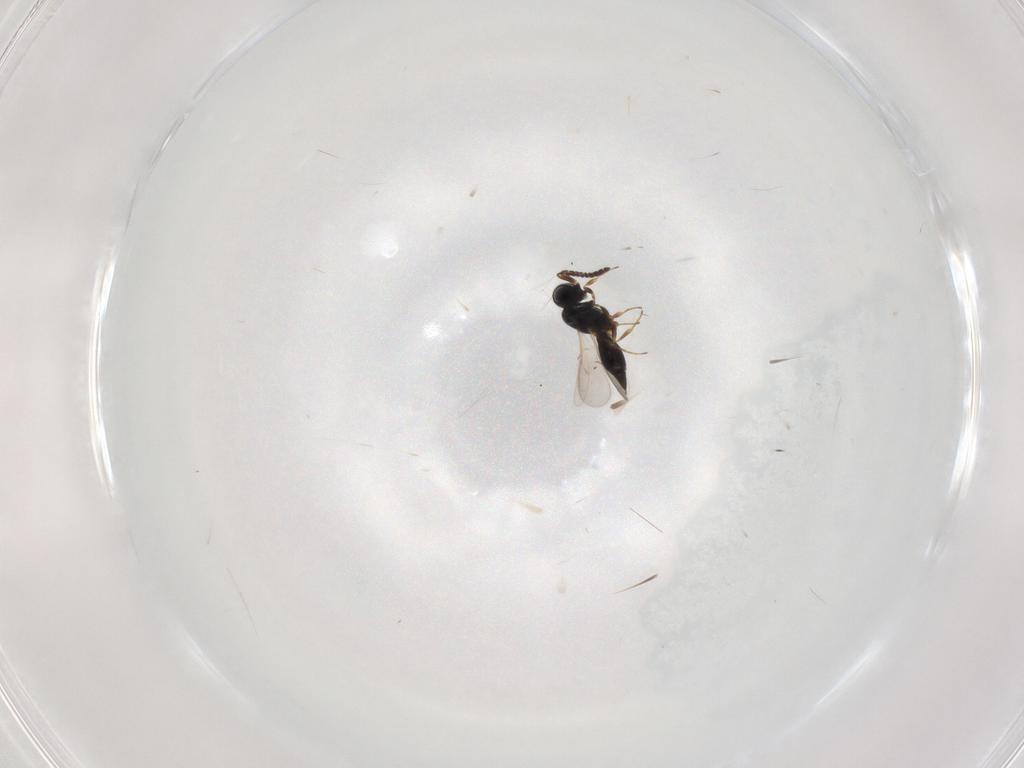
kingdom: Animalia
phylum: Arthropoda
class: Insecta
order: Hymenoptera
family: Scelionidae
